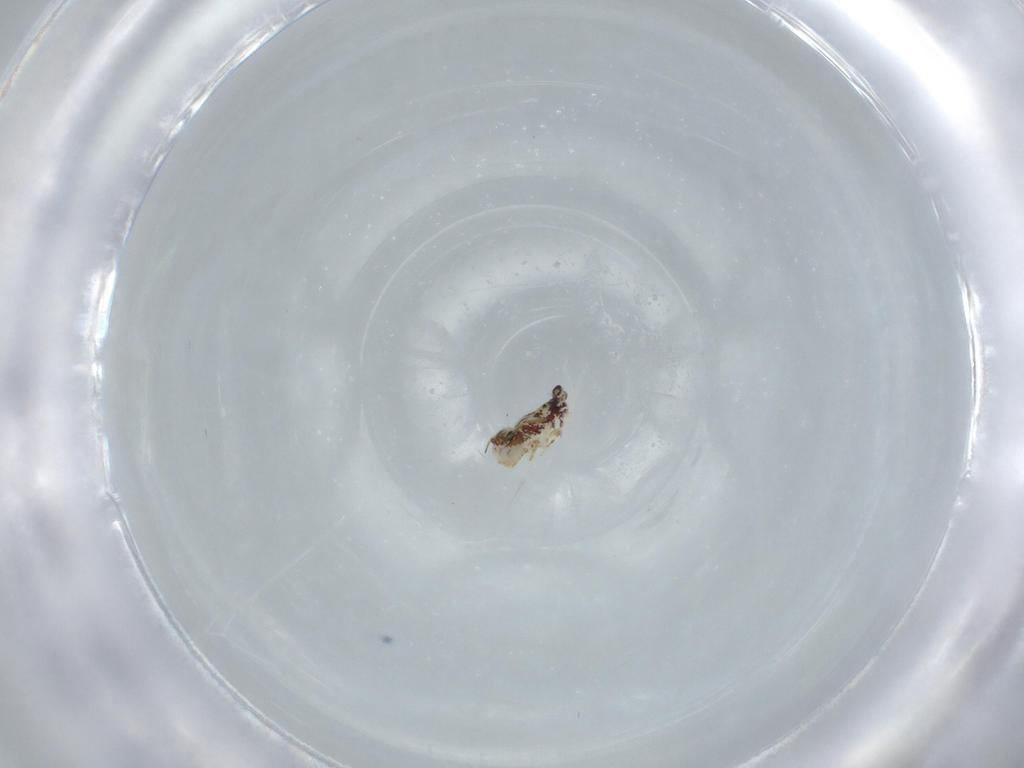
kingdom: Animalia
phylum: Arthropoda
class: Collembola
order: Symphypleona
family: Bourletiellidae
